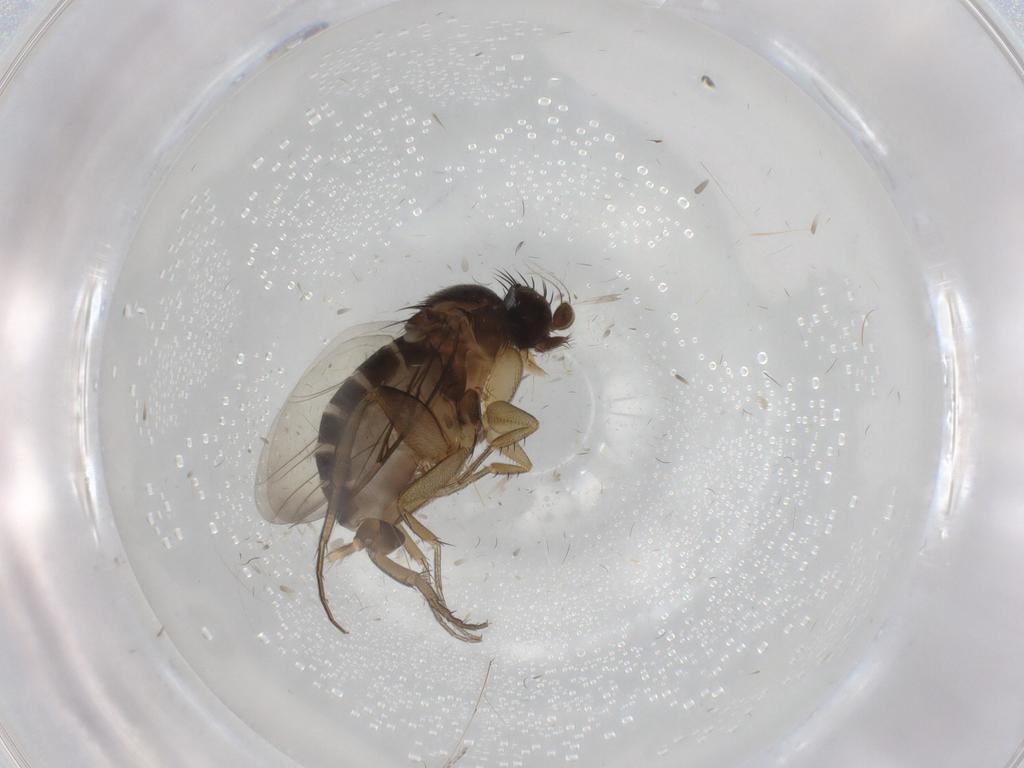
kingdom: Animalia
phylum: Arthropoda
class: Insecta
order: Diptera
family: Phoridae
